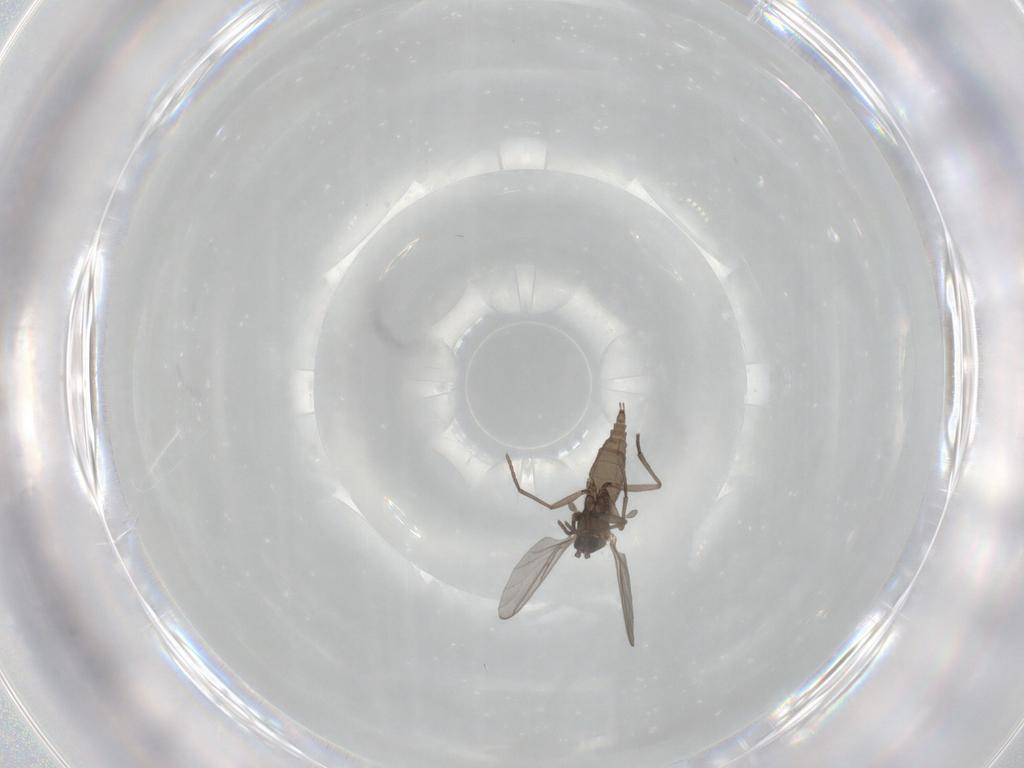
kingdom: Animalia
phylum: Arthropoda
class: Insecta
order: Diptera
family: Sciaridae
